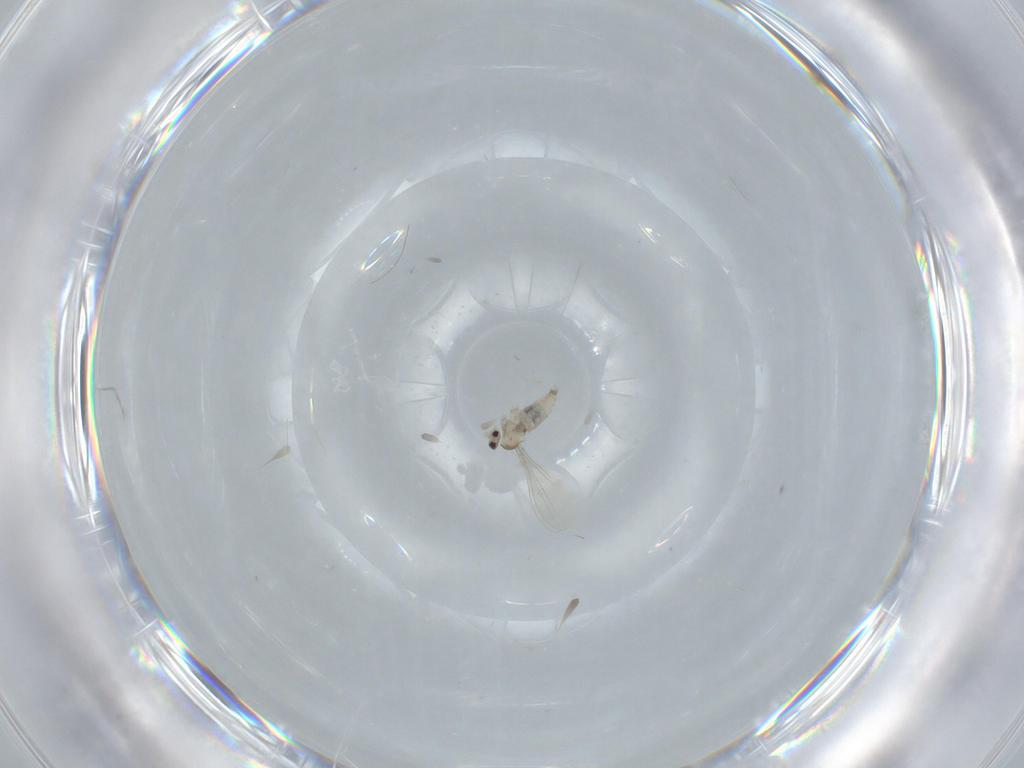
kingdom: Animalia
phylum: Arthropoda
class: Insecta
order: Diptera
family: Cecidomyiidae
